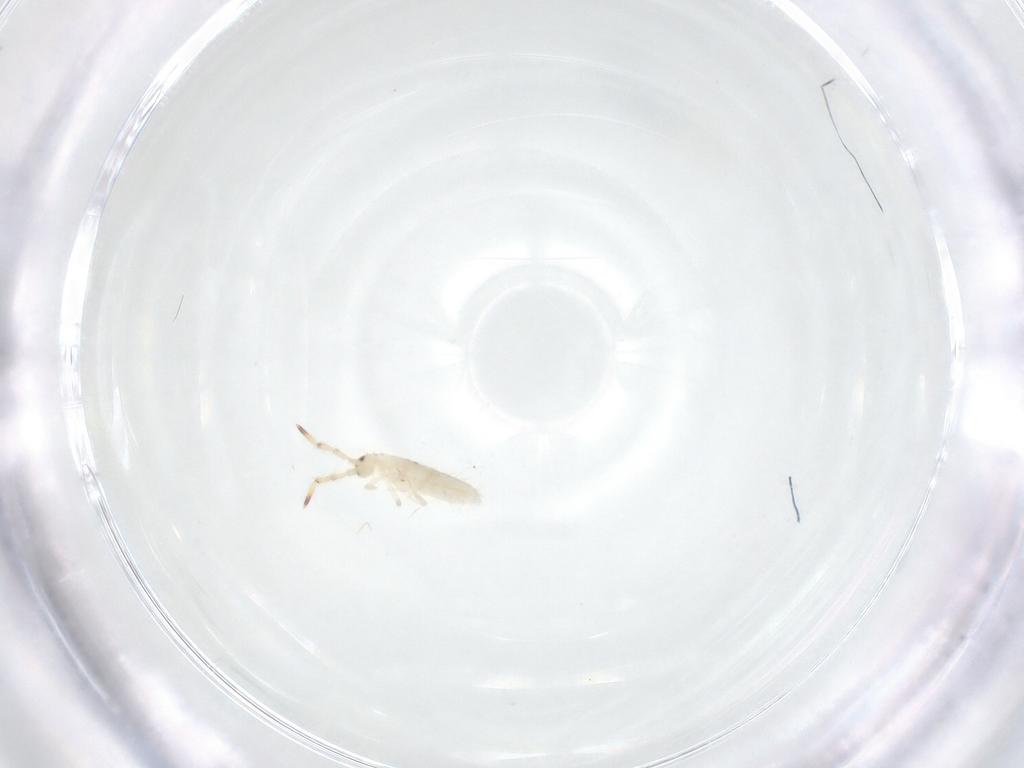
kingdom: Animalia
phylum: Arthropoda
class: Collembola
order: Entomobryomorpha
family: Entomobryidae
